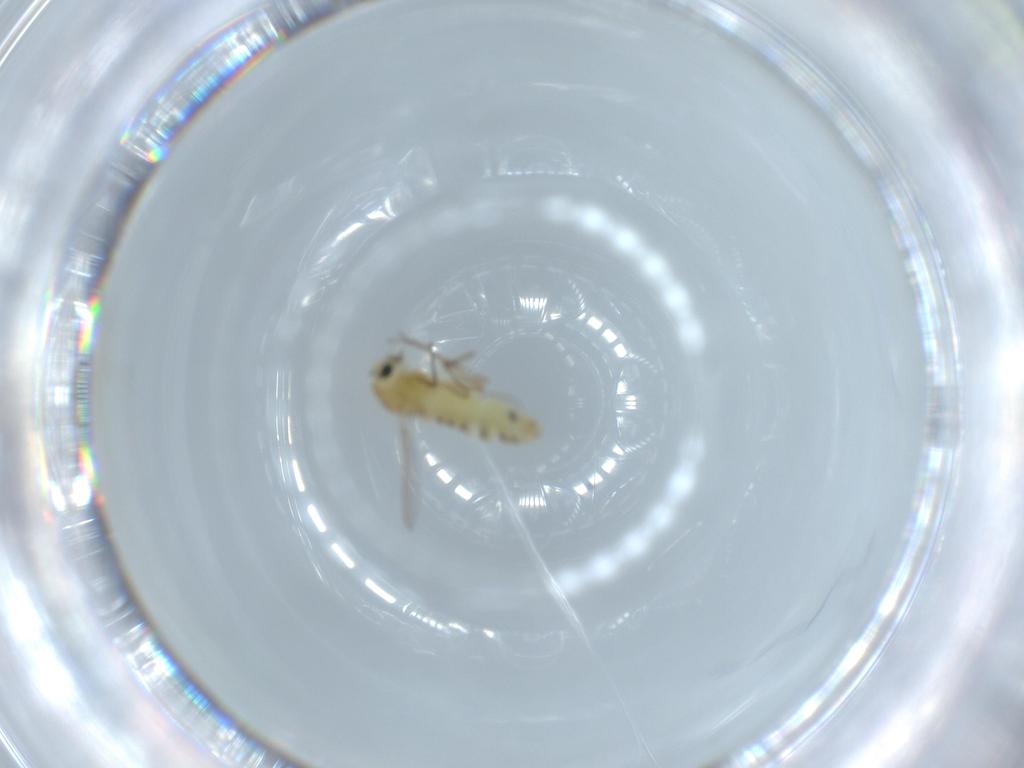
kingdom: Animalia
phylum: Arthropoda
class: Insecta
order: Diptera
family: Chironomidae
